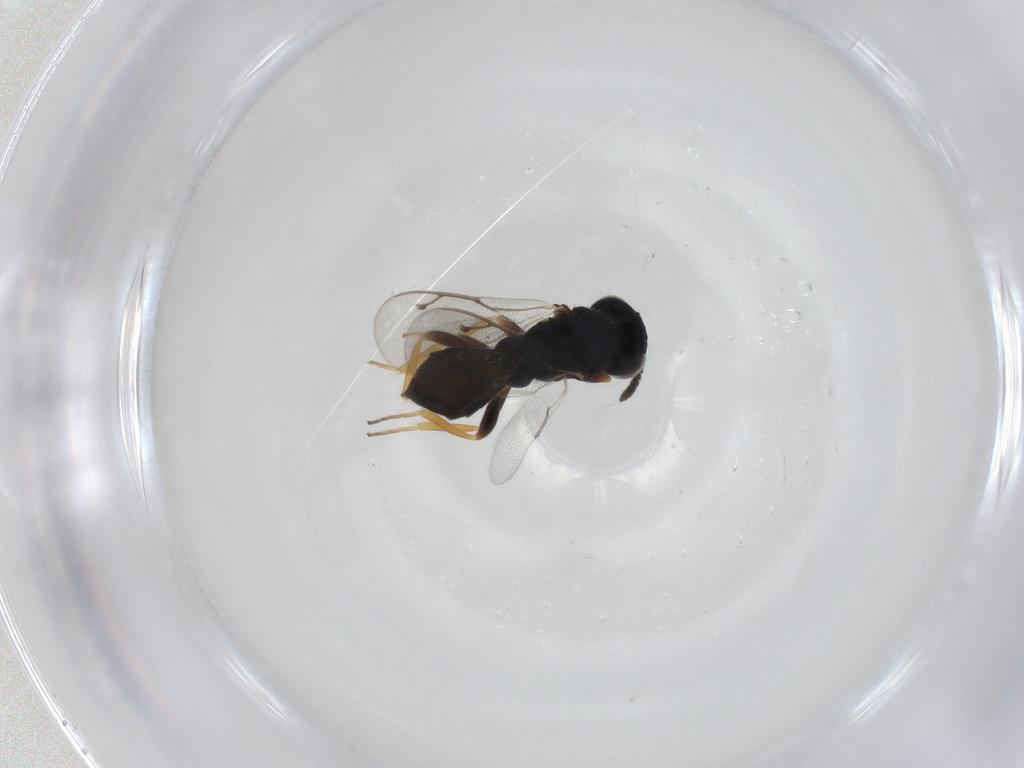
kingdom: Animalia
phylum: Arthropoda
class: Insecta
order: Hymenoptera
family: Pteromalidae
